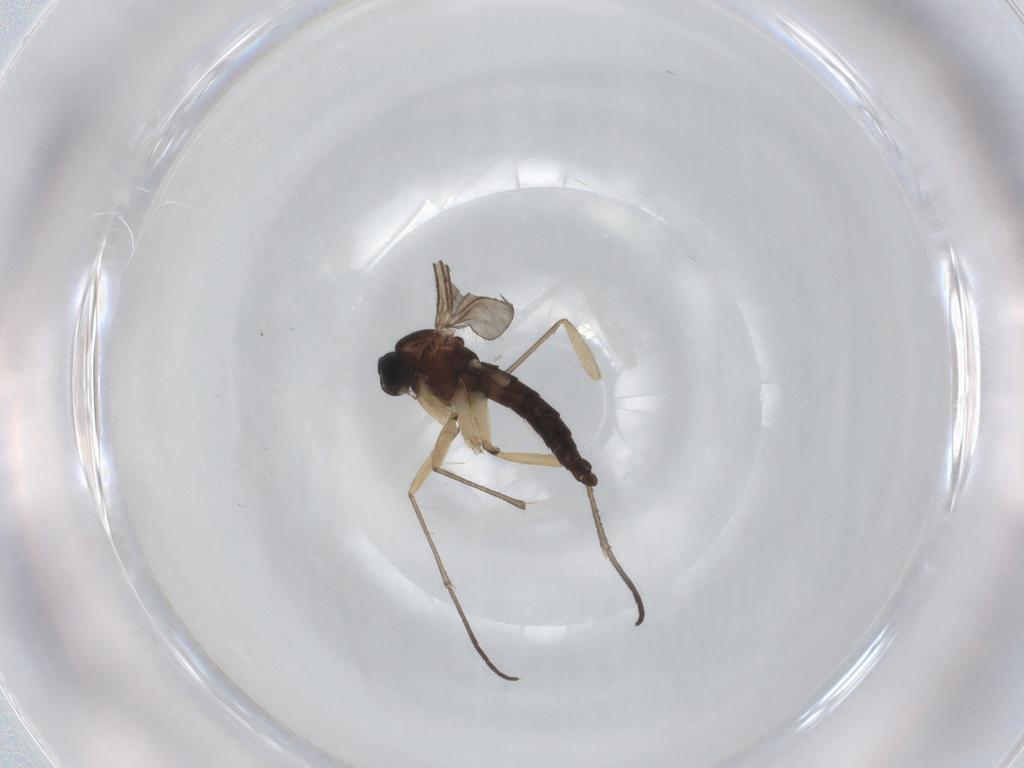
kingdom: Animalia
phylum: Arthropoda
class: Insecta
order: Diptera
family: Sciaridae
